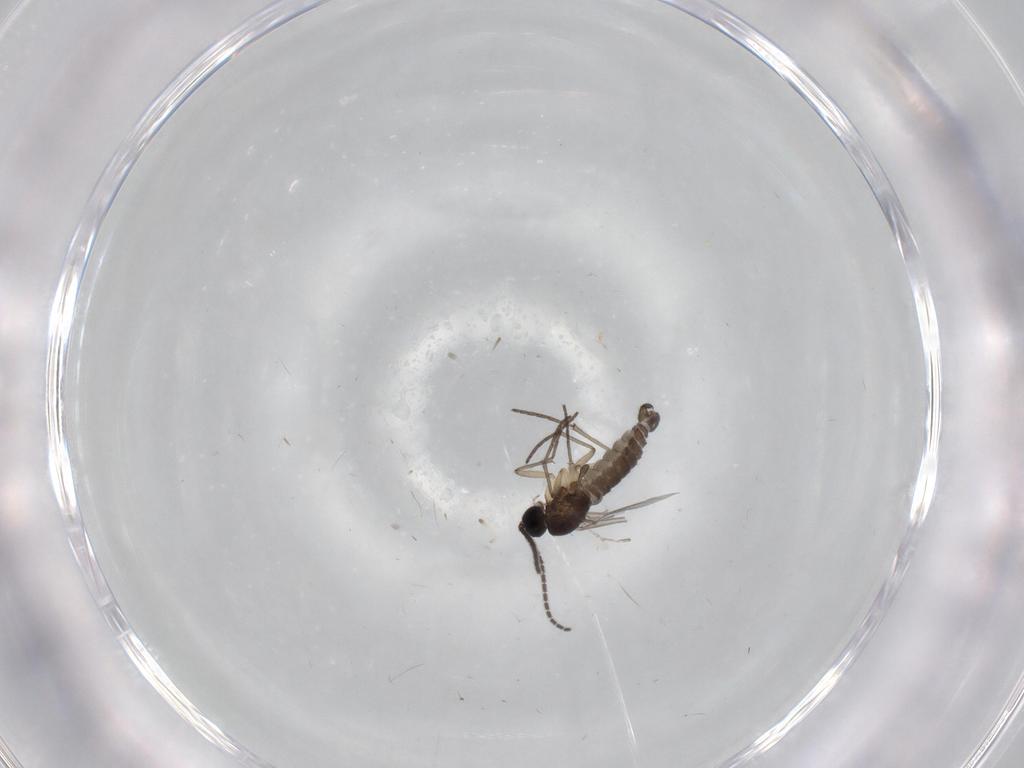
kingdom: Animalia
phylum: Arthropoda
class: Insecta
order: Diptera
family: Sciaridae
